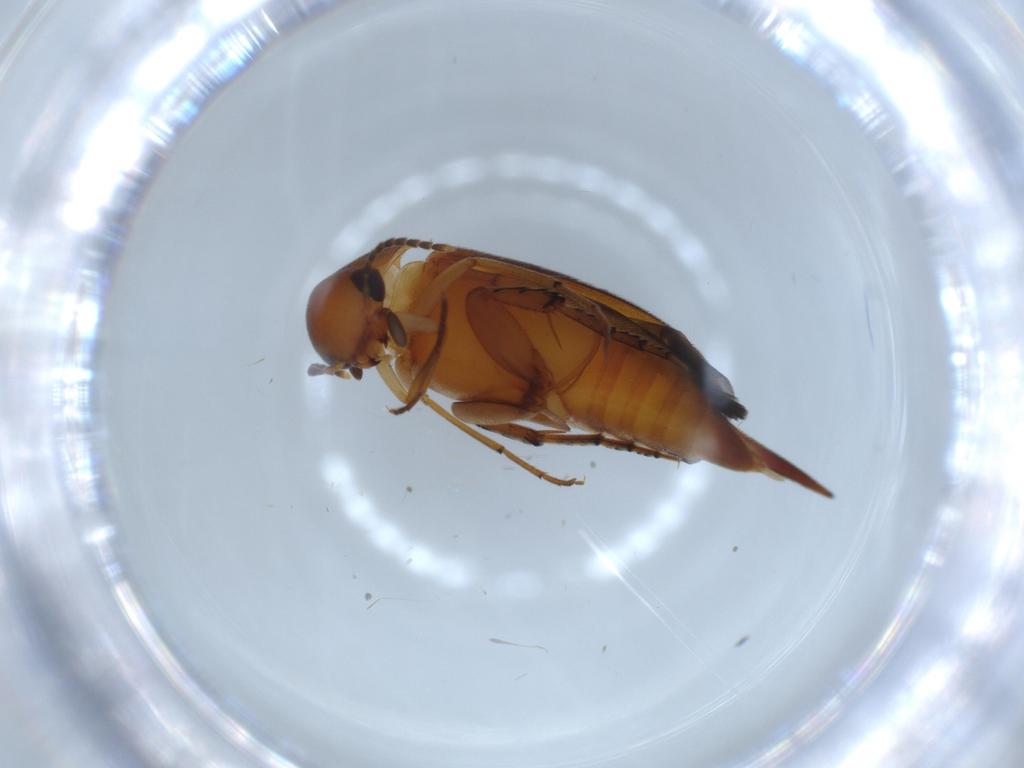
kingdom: Animalia
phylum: Arthropoda
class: Insecta
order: Coleoptera
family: Mordellidae
